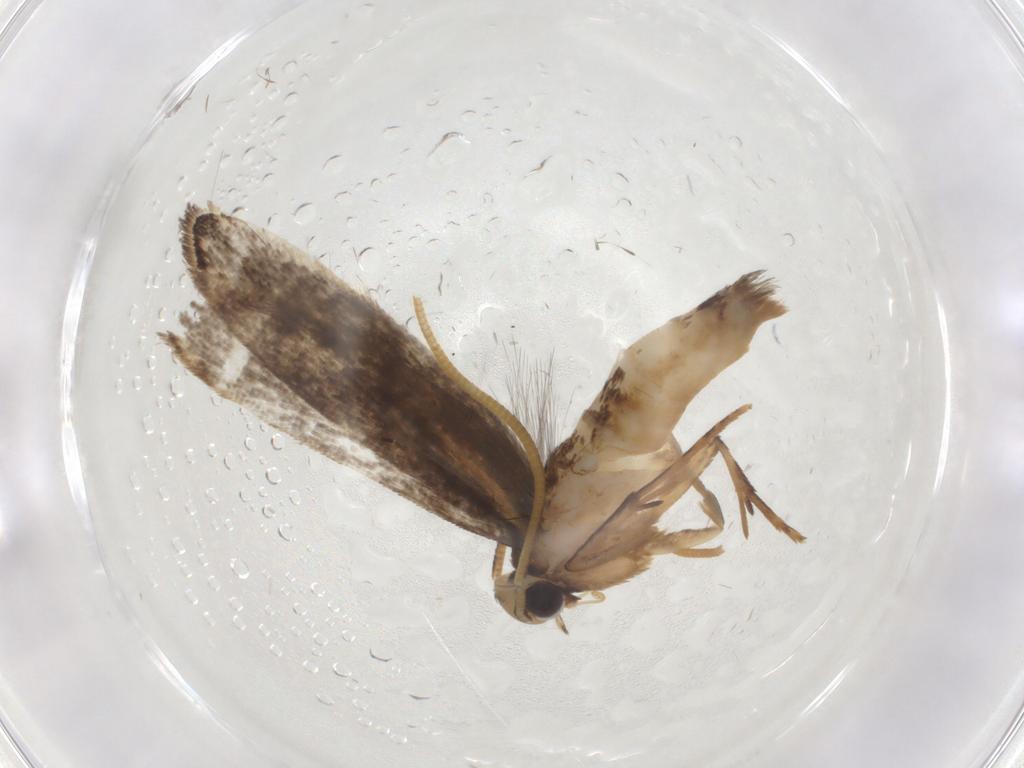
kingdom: Animalia
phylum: Arthropoda
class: Insecta
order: Lepidoptera
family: Gelechiidae
